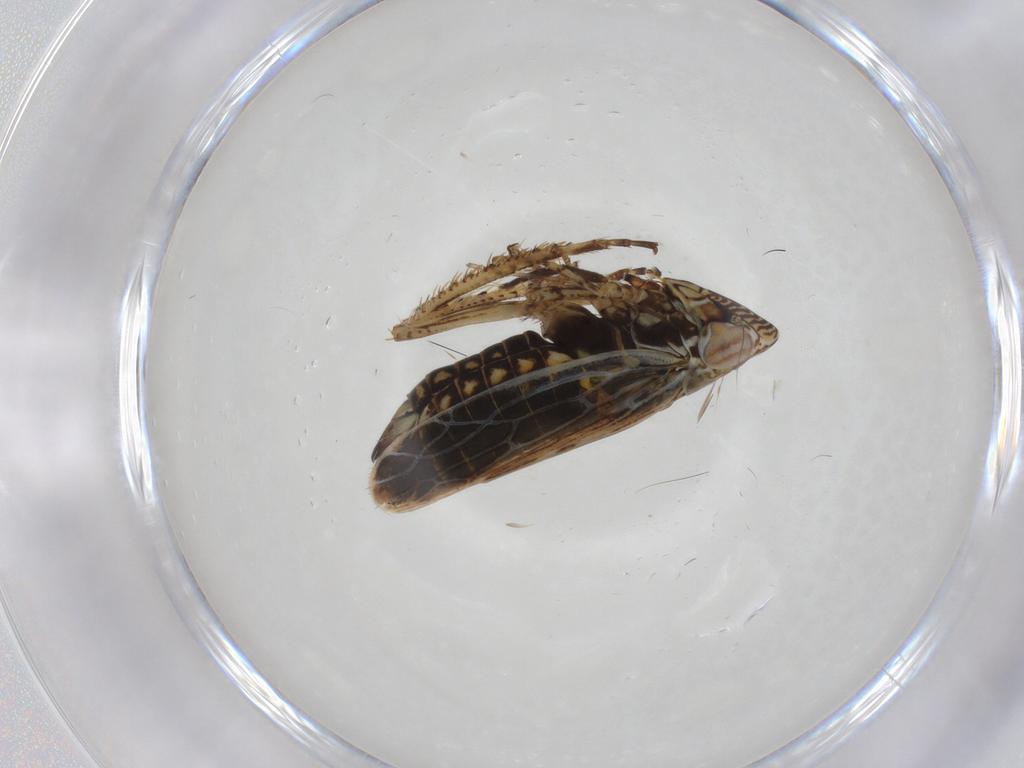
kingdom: Animalia
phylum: Arthropoda
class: Insecta
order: Hemiptera
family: Cicadellidae
